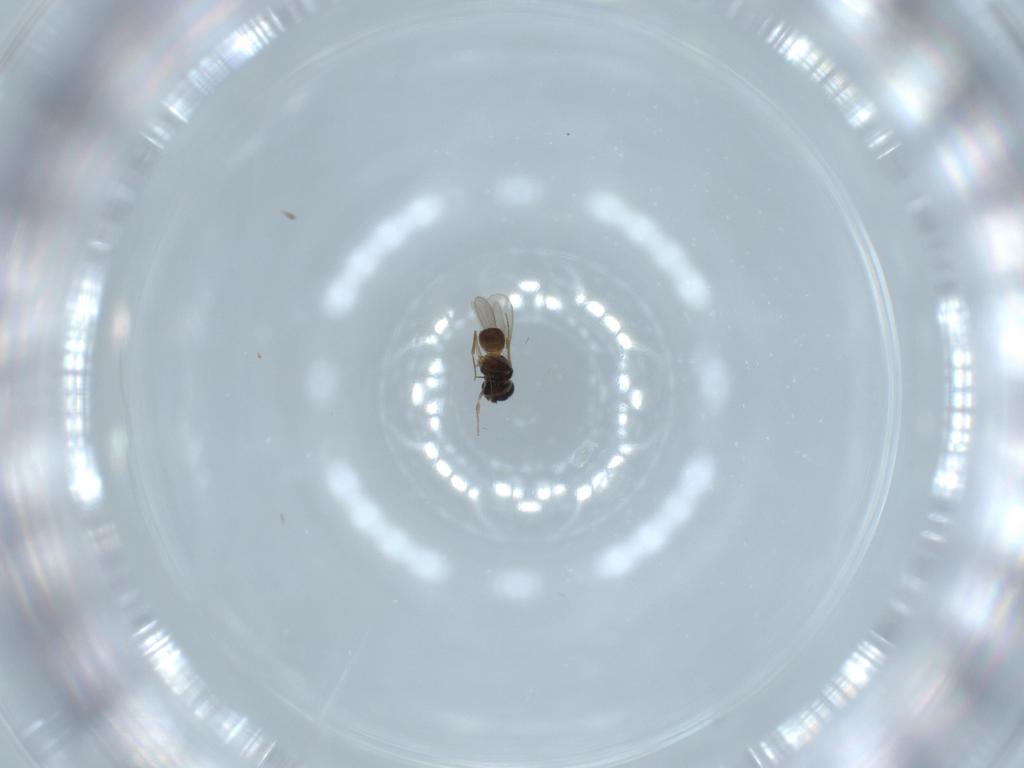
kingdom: Animalia
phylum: Arthropoda
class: Insecta
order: Hymenoptera
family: Scelionidae
